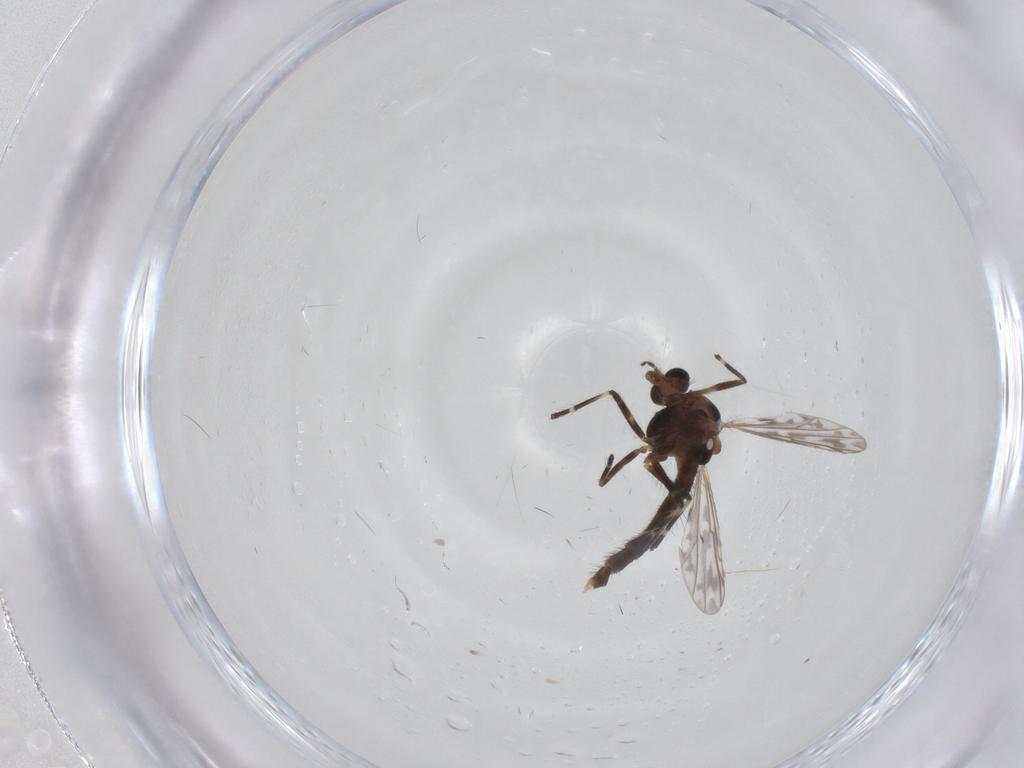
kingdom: Animalia
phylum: Arthropoda
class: Insecta
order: Diptera
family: Chironomidae
